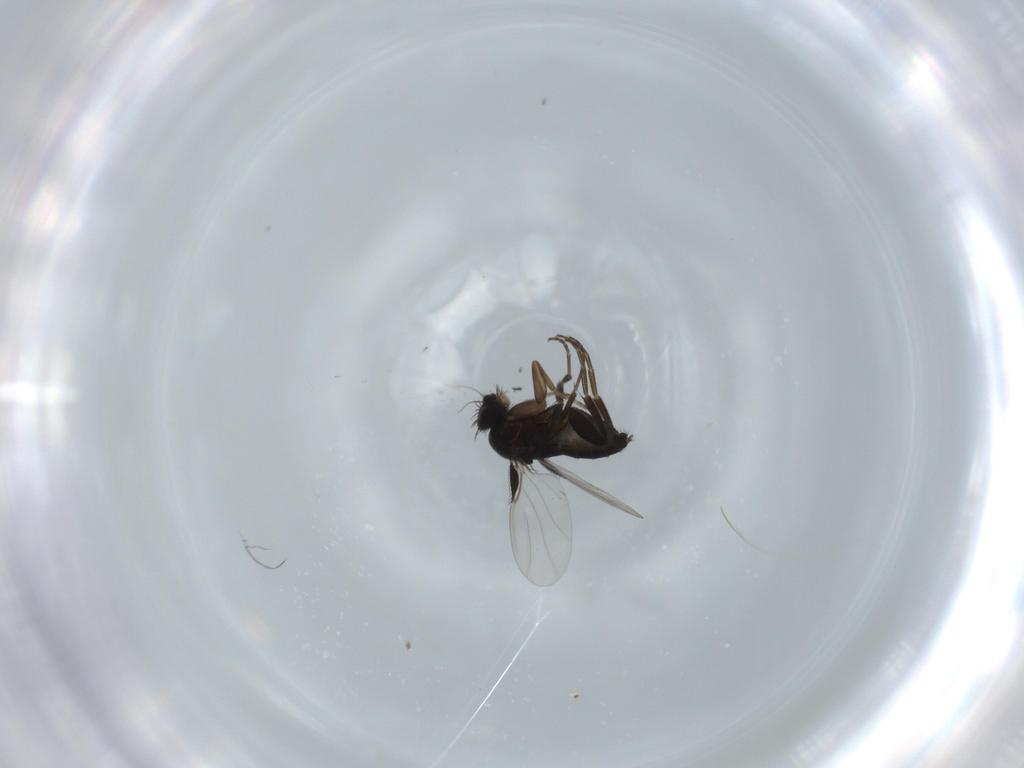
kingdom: Animalia
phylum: Arthropoda
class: Insecta
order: Diptera
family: Phoridae
